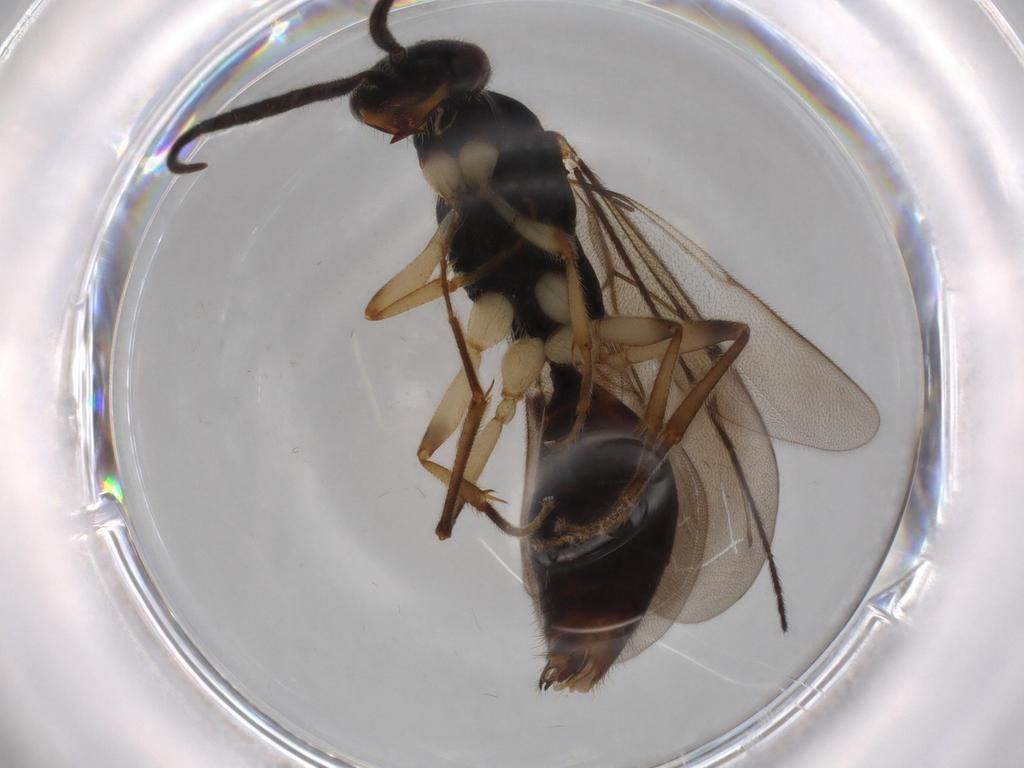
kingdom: Animalia
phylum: Arthropoda
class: Insecta
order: Hymenoptera
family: Bethylidae
